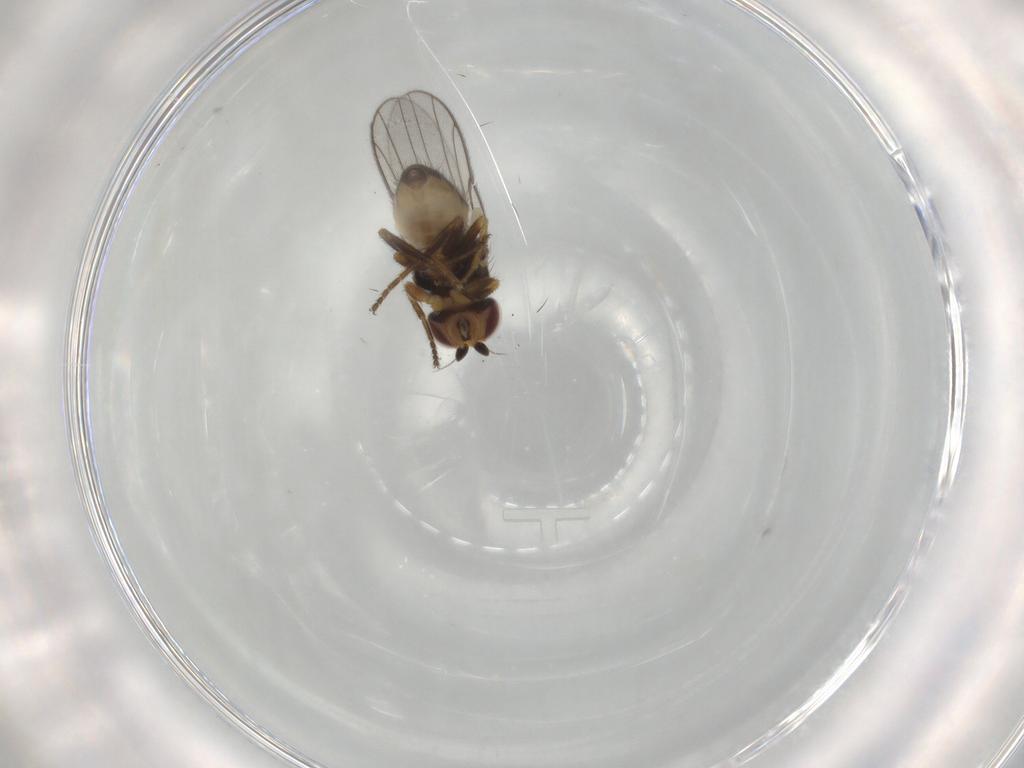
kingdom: Animalia
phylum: Arthropoda
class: Insecta
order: Diptera
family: Chloropidae
